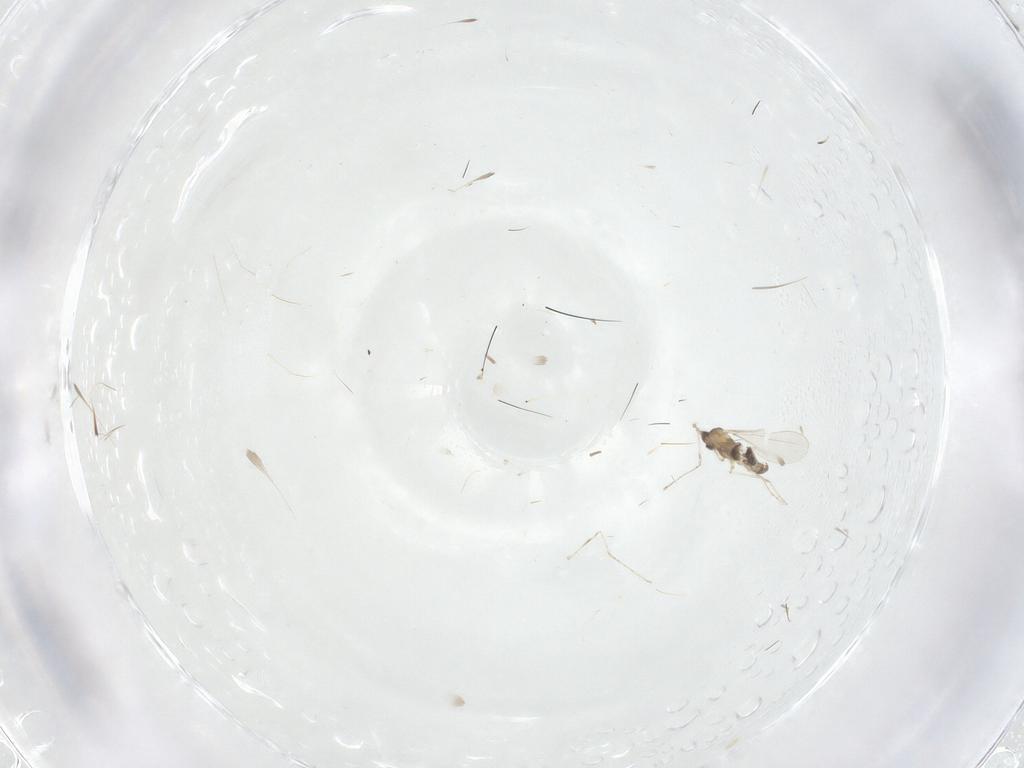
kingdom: Animalia
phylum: Arthropoda
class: Insecta
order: Diptera
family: Cecidomyiidae
